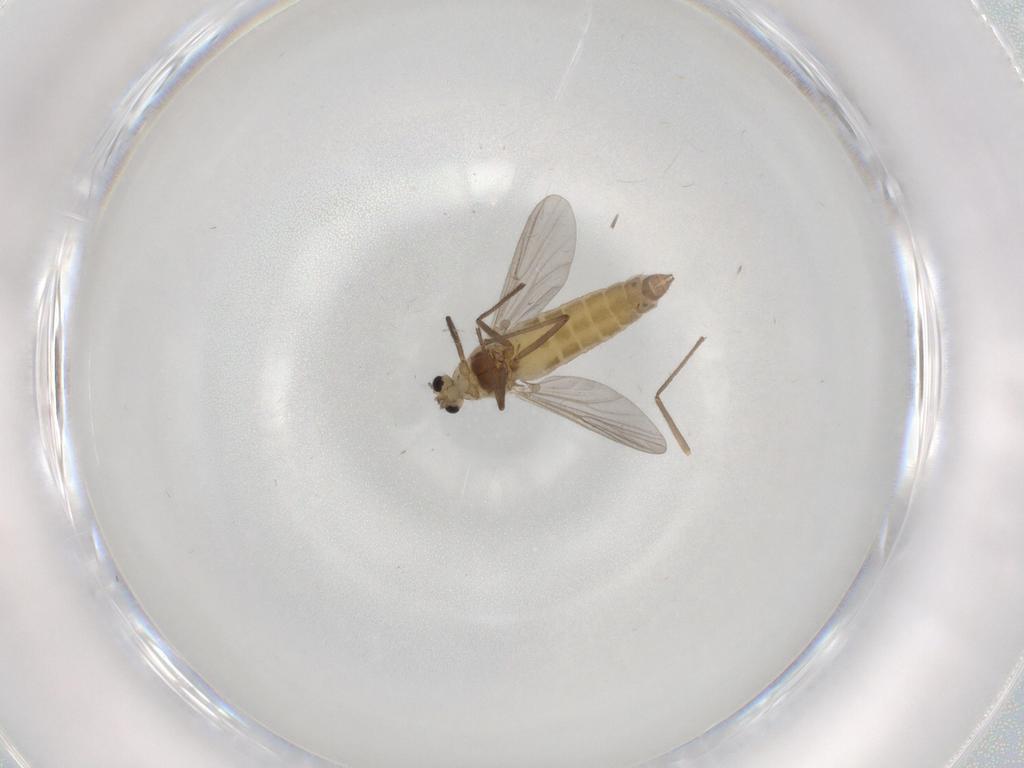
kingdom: Animalia
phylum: Arthropoda
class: Insecta
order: Diptera
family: Chironomidae
